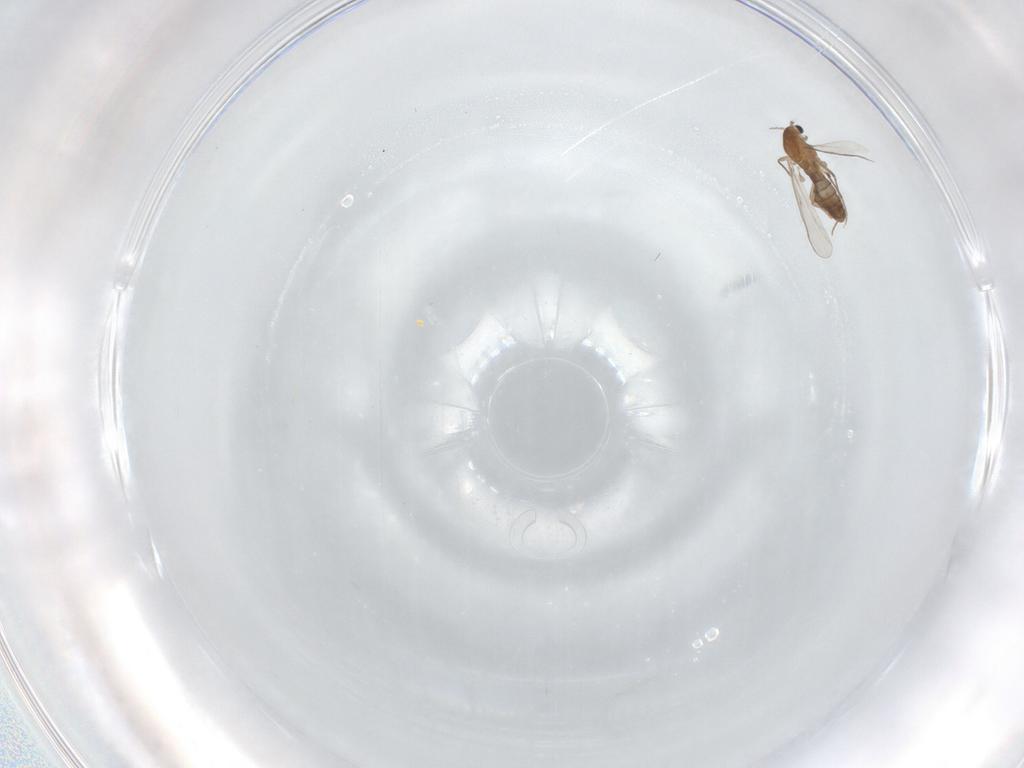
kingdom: Animalia
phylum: Arthropoda
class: Insecta
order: Diptera
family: Chironomidae
